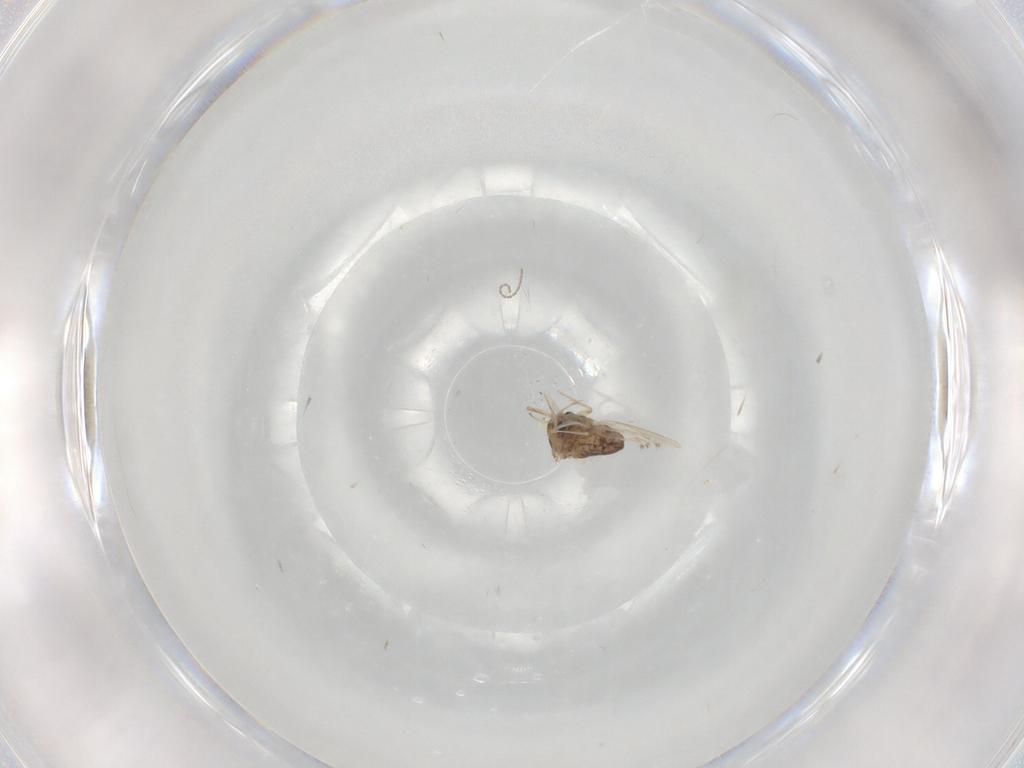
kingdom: Animalia
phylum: Arthropoda
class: Insecta
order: Diptera
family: Chironomidae
